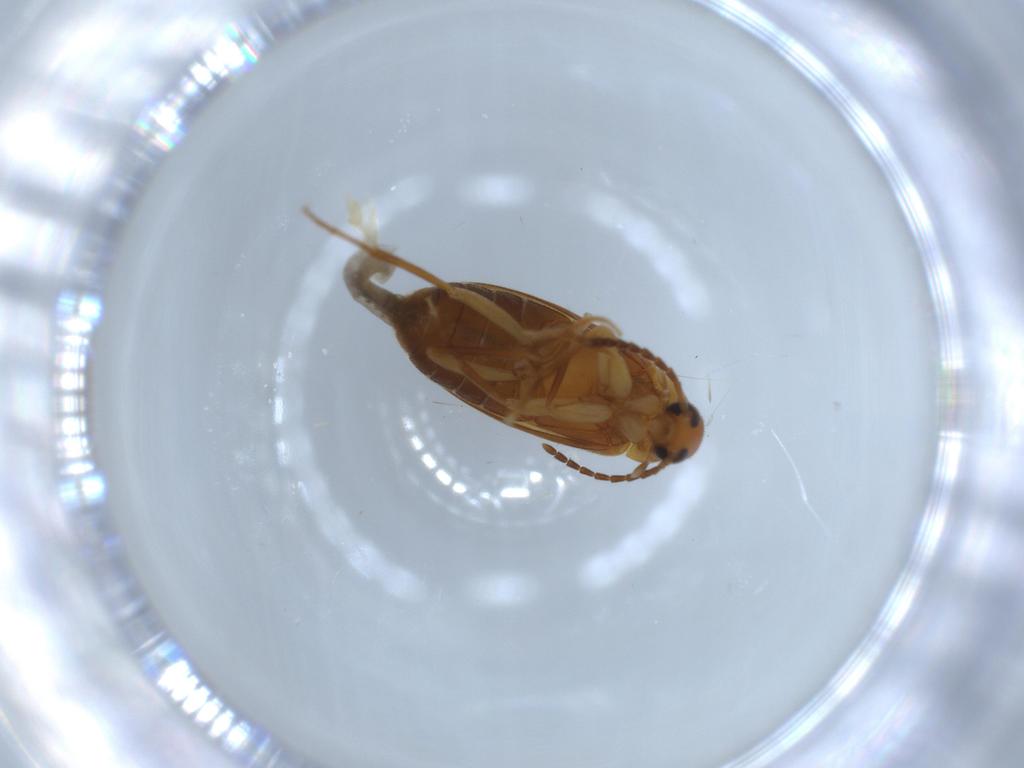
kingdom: Animalia
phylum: Arthropoda
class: Insecta
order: Coleoptera
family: Scraptiidae
